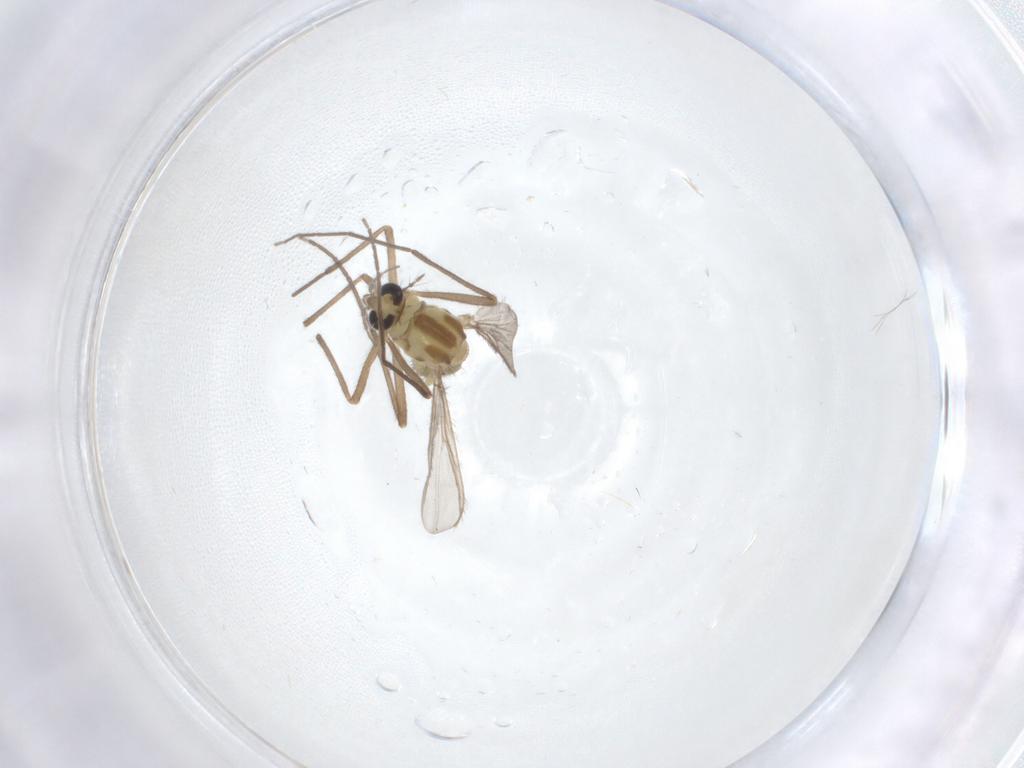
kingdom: Animalia
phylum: Arthropoda
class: Insecta
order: Diptera
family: Chironomidae
